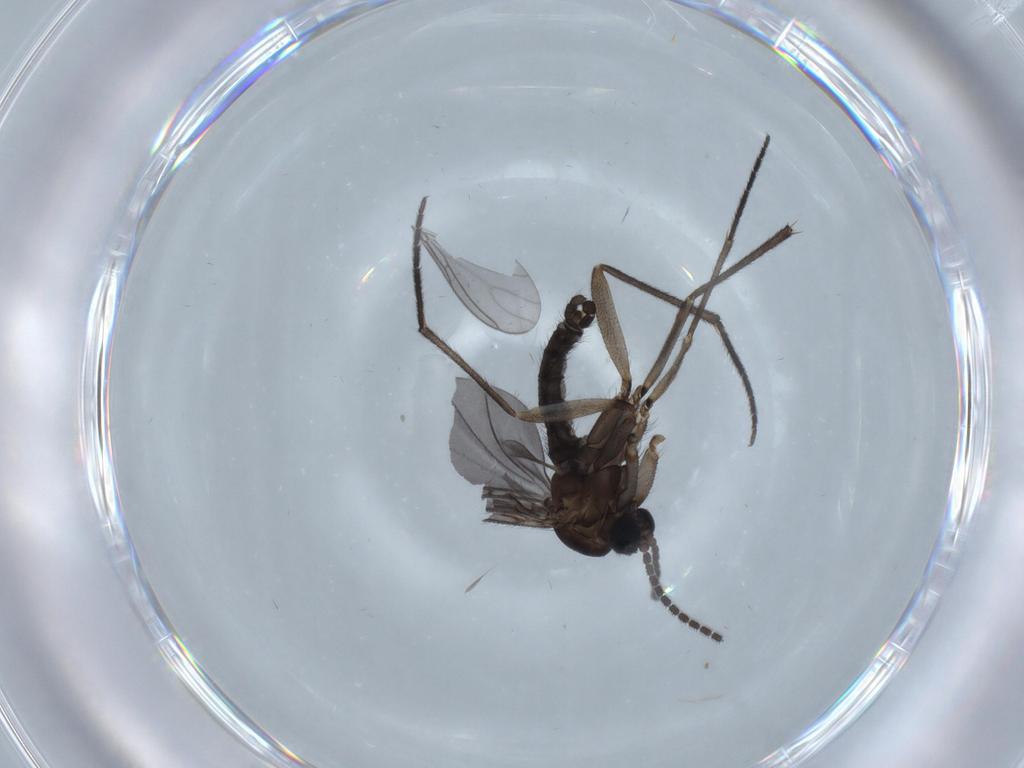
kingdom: Animalia
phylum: Arthropoda
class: Insecta
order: Diptera
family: Sciaridae
